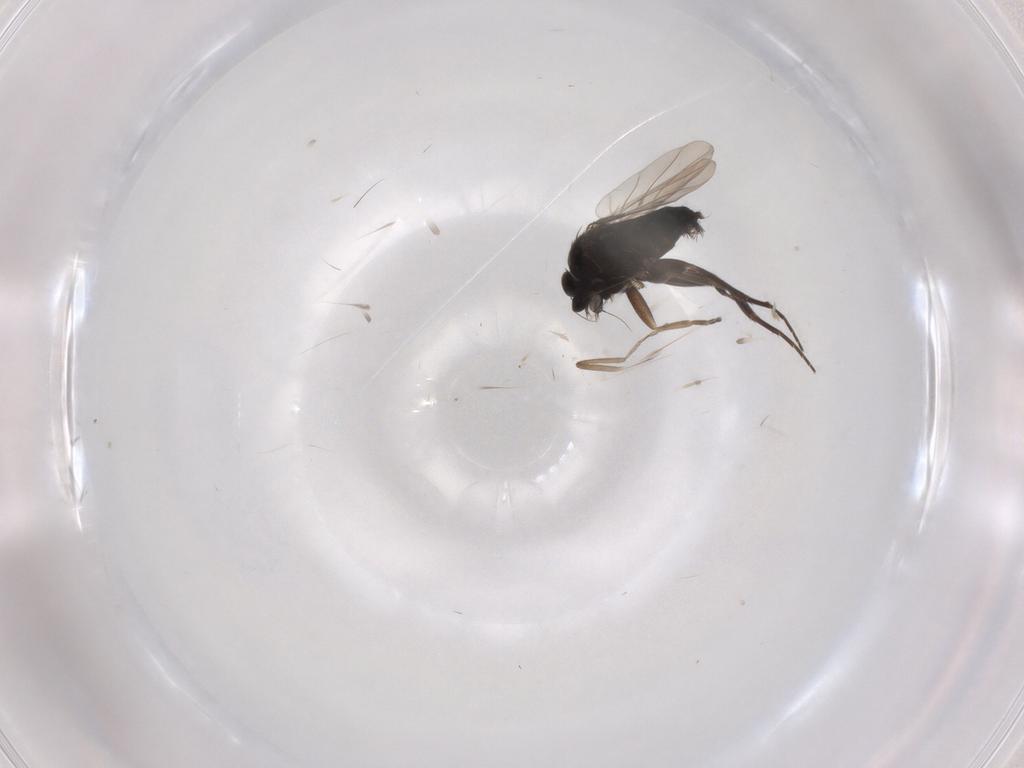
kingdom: Animalia
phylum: Arthropoda
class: Insecta
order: Diptera
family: Phoridae
